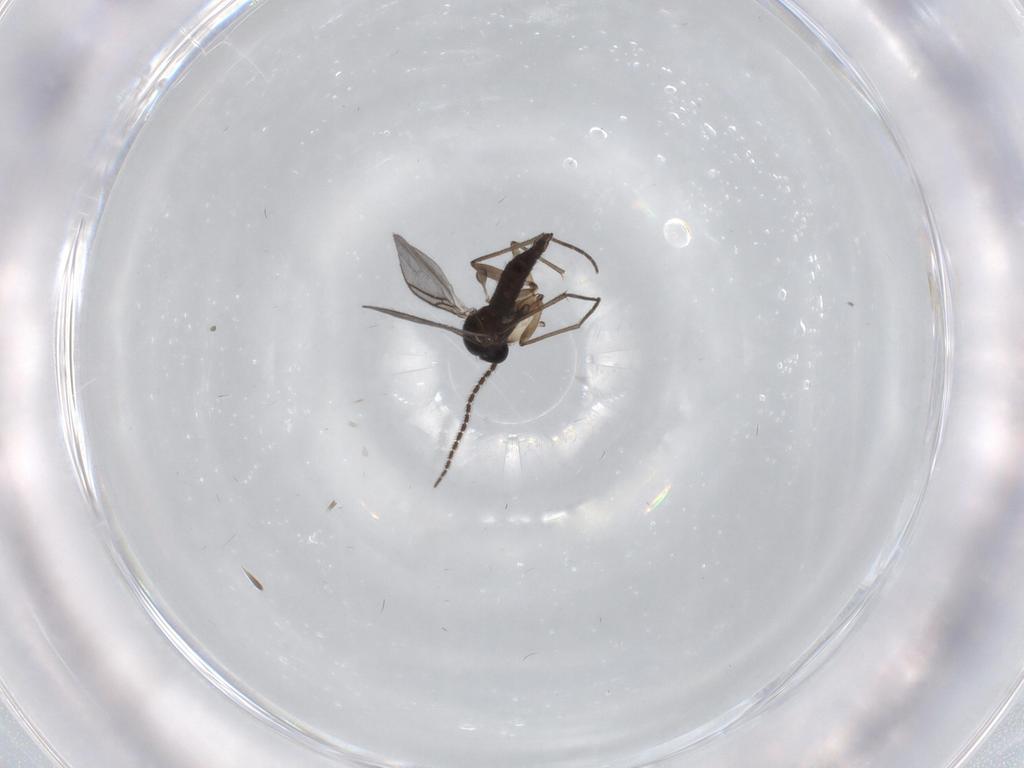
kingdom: Animalia
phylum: Arthropoda
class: Insecta
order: Diptera
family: Sciaridae
